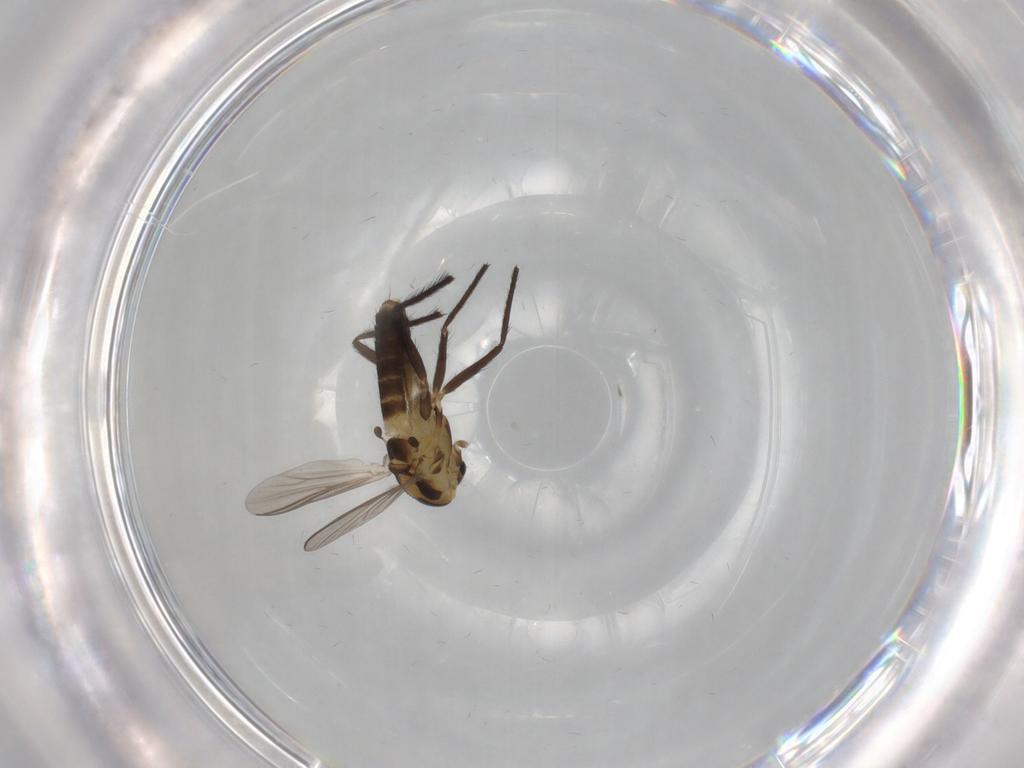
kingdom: Animalia
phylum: Arthropoda
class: Insecta
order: Diptera
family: Chironomidae
